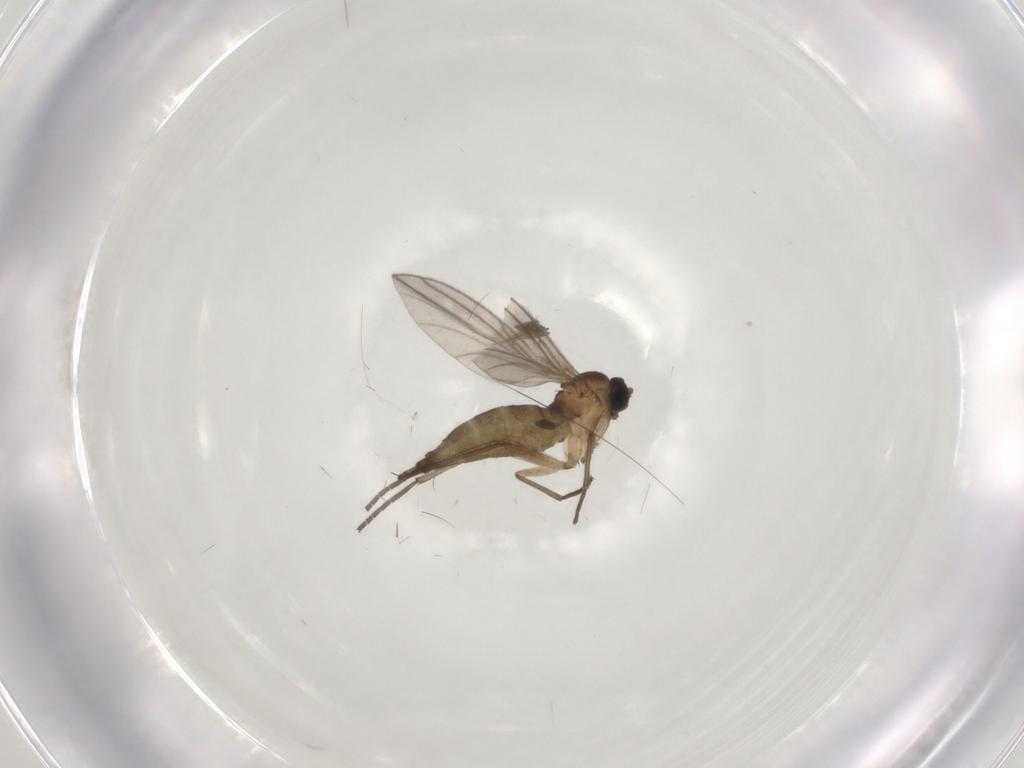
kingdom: Animalia
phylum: Arthropoda
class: Insecta
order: Diptera
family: Sciaridae
